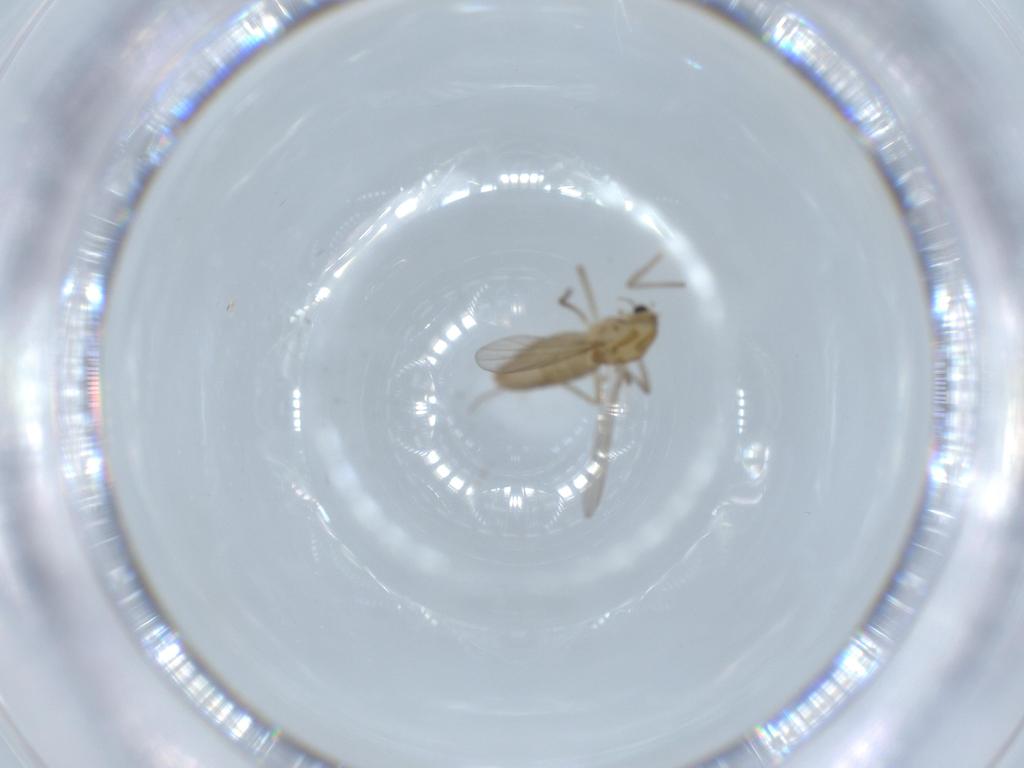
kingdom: Animalia
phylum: Arthropoda
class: Insecta
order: Diptera
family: Chironomidae
